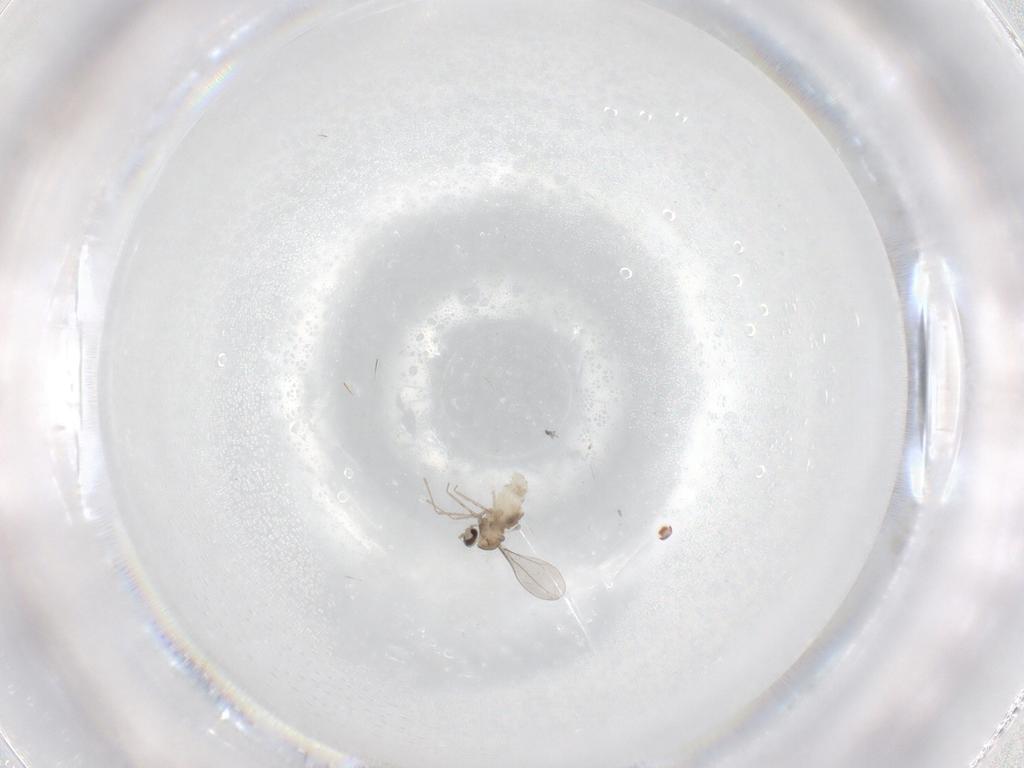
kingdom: Animalia
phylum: Arthropoda
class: Insecta
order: Diptera
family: Cecidomyiidae
